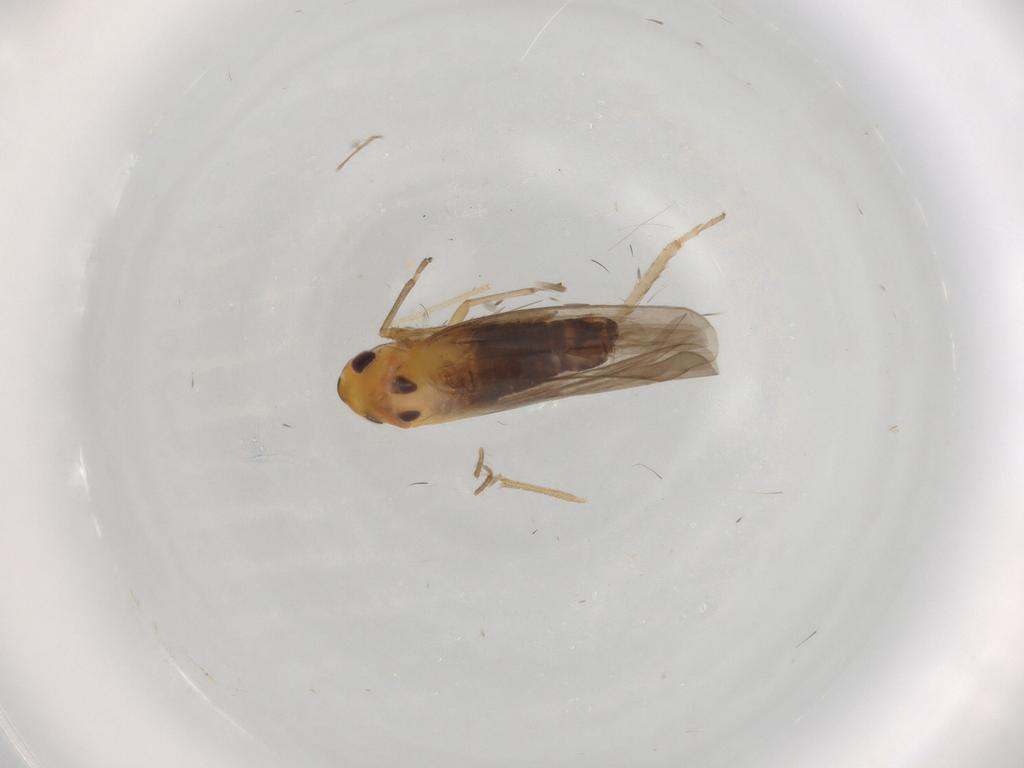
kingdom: Animalia
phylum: Arthropoda
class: Insecta
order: Hemiptera
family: Cicadellidae
